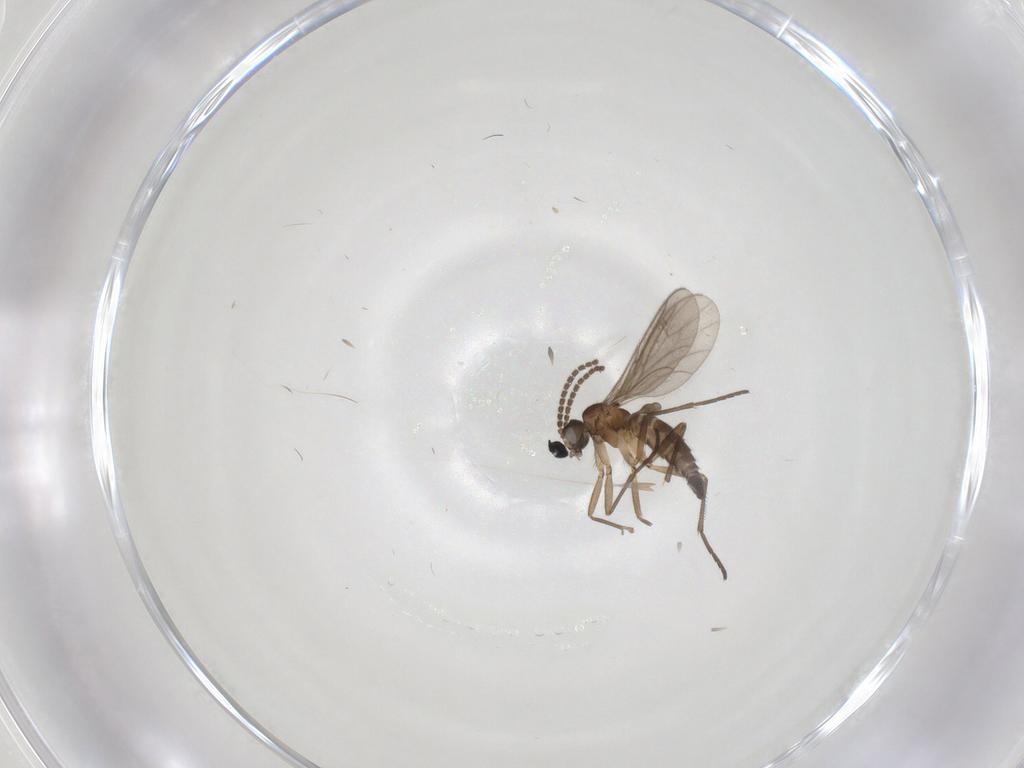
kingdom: Animalia
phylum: Arthropoda
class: Insecta
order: Diptera
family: Sciaridae
